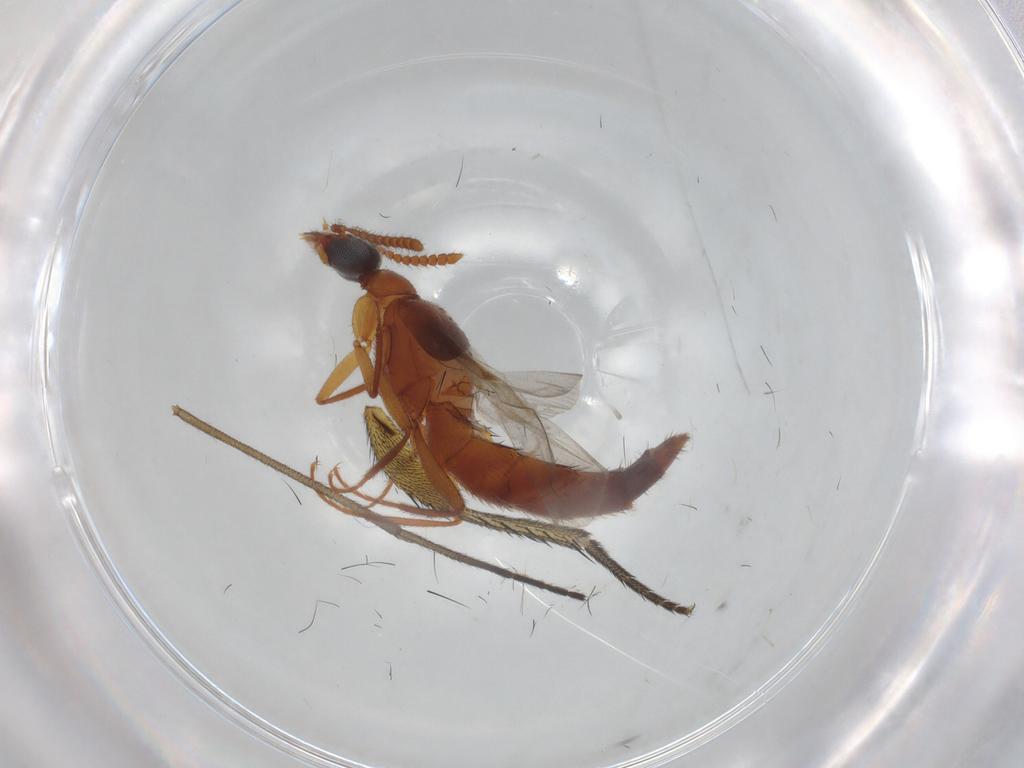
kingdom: Animalia
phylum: Arthropoda
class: Insecta
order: Coleoptera
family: Staphylinidae
